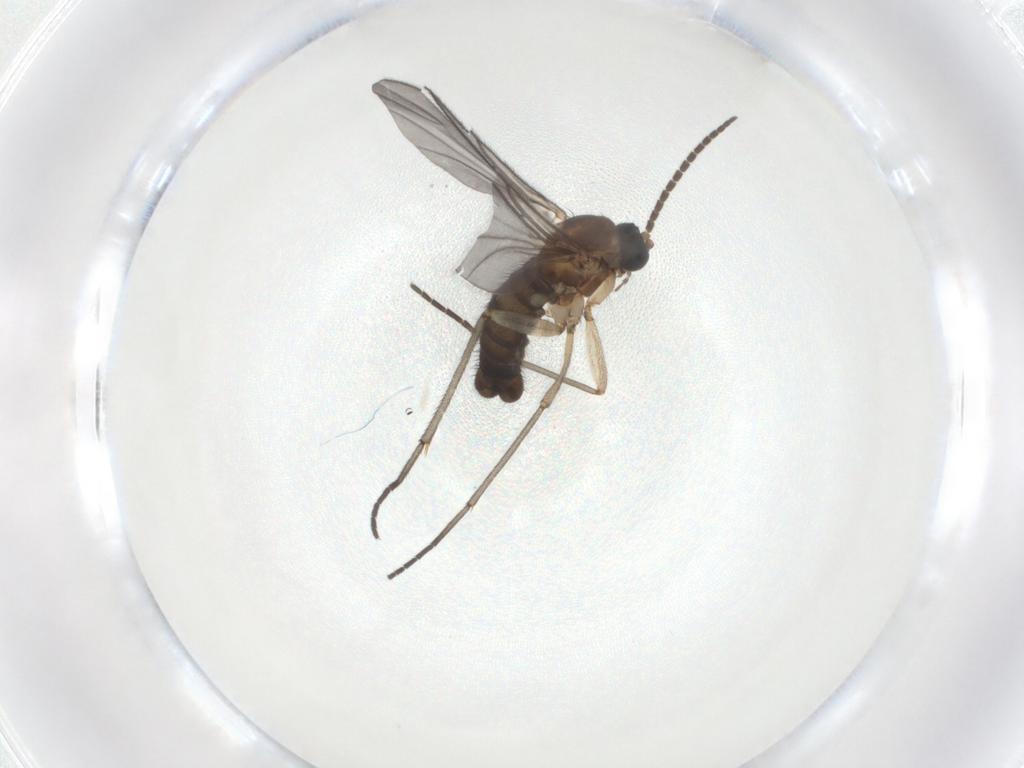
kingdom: Animalia
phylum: Arthropoda
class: Insecta
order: Diptera
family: Sciaridae
